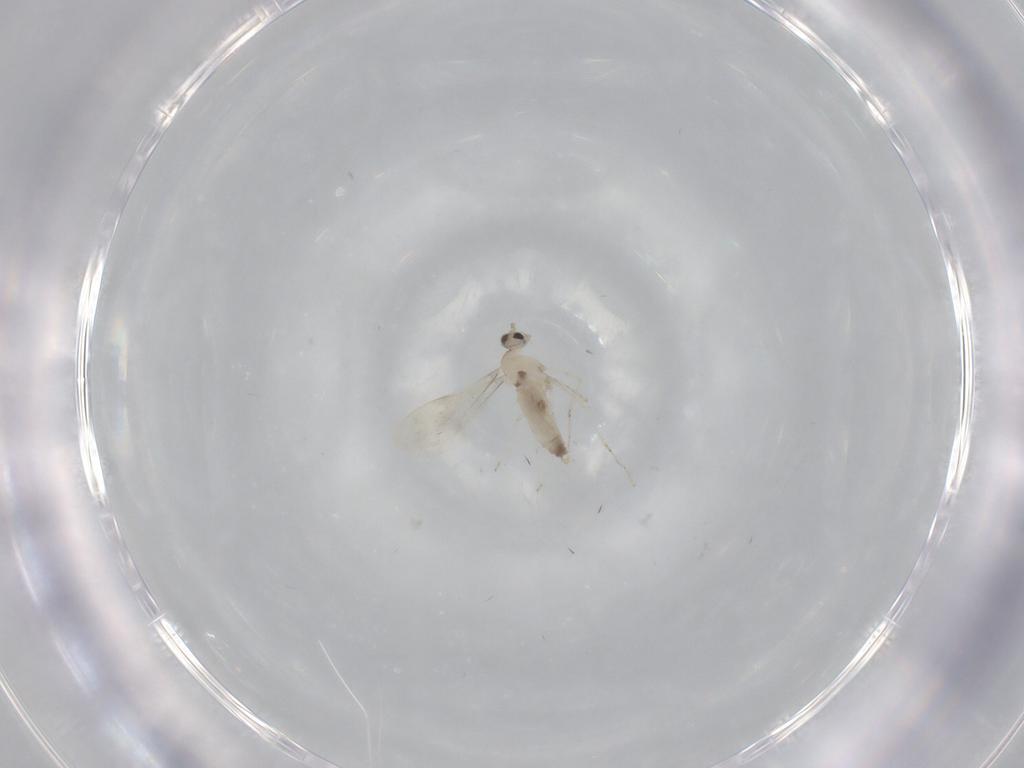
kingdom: Animalia
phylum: Arthropoda
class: Insecta
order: Diptera
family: Cecidomyiidae
